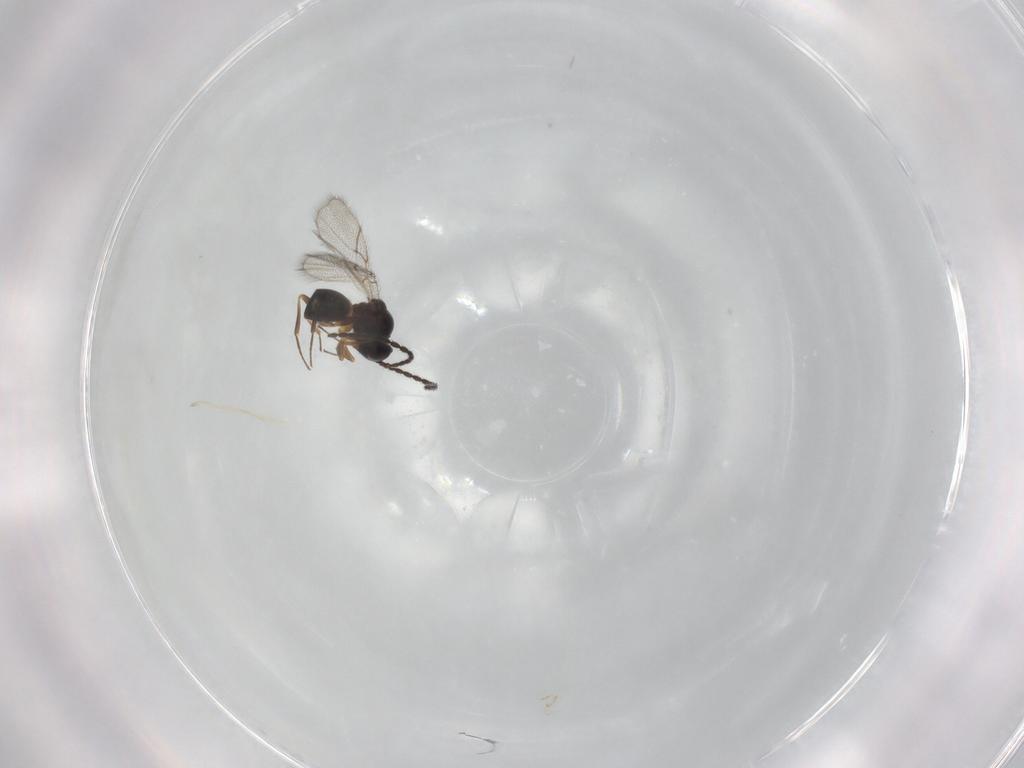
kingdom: Animalia
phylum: Arthropoda
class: Insecta
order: Hymenoptera
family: Figitidae
